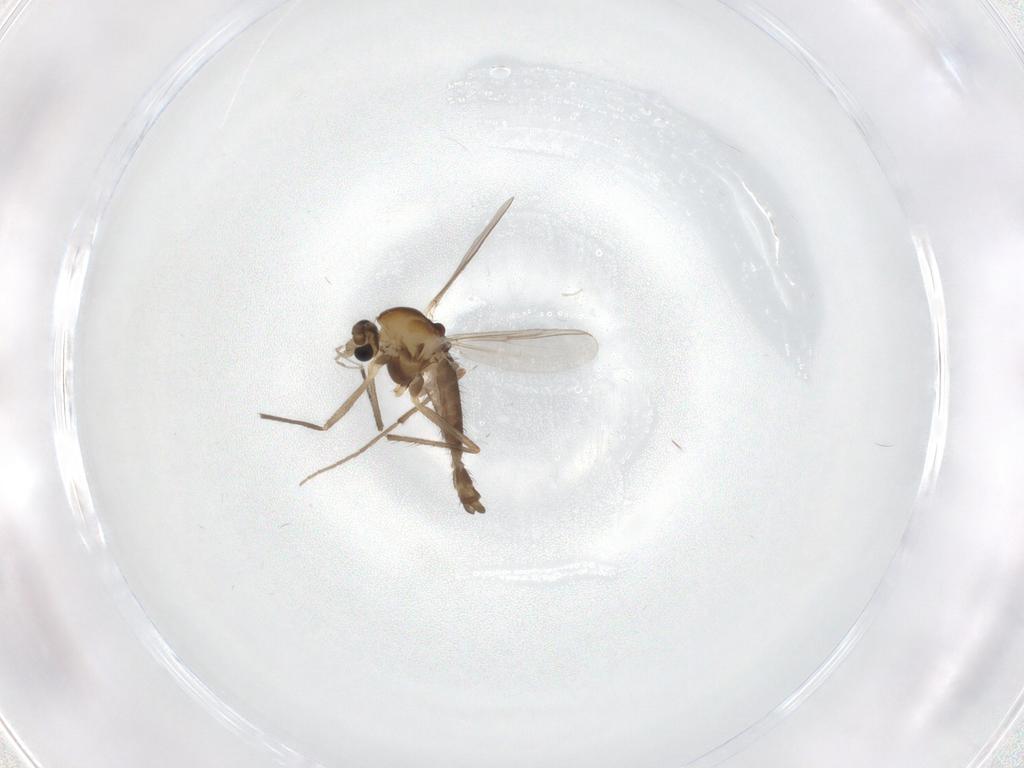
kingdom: Animalia
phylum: Arthropoda
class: Insecta
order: Diptera
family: Chironomidae
